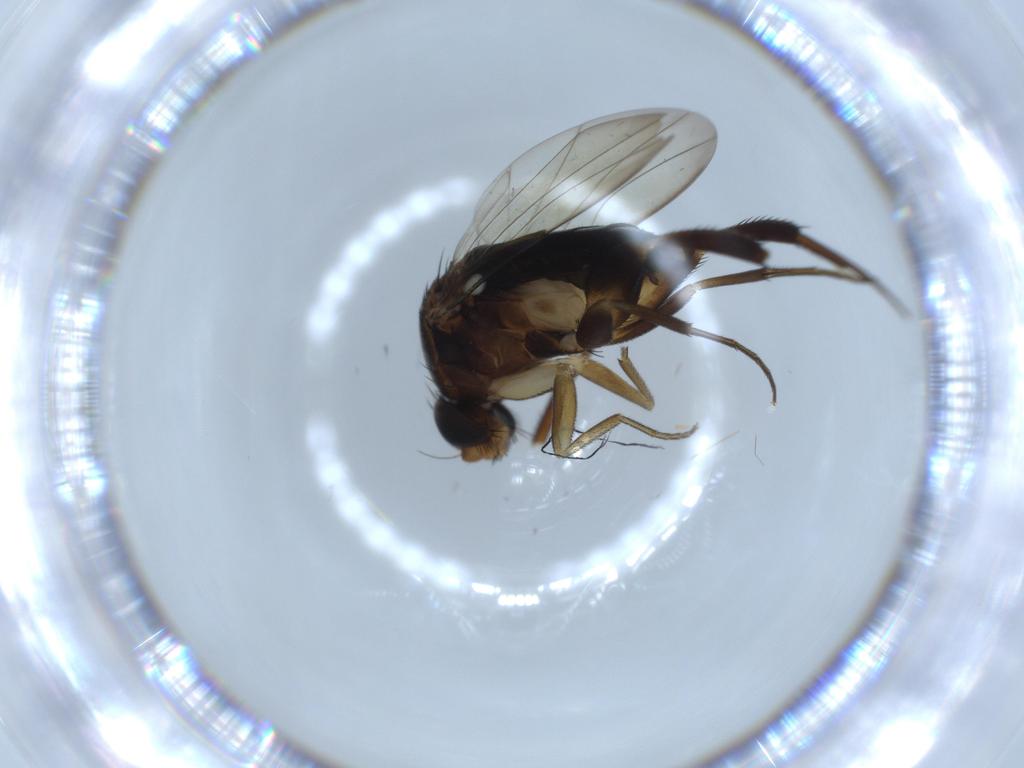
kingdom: Animalia
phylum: Arthropoda
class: Insecta
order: Diptera
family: Phoridae
